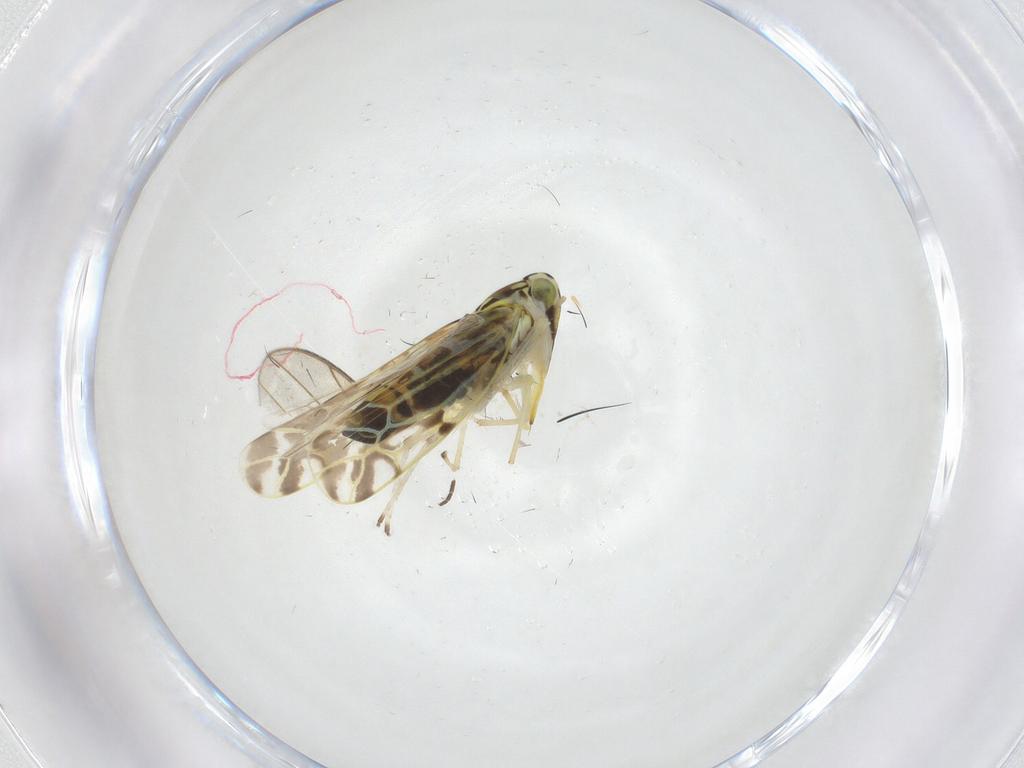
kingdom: Animalia
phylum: Arthropoda
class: Insecta
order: Hemiptera
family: Cicadellidae
